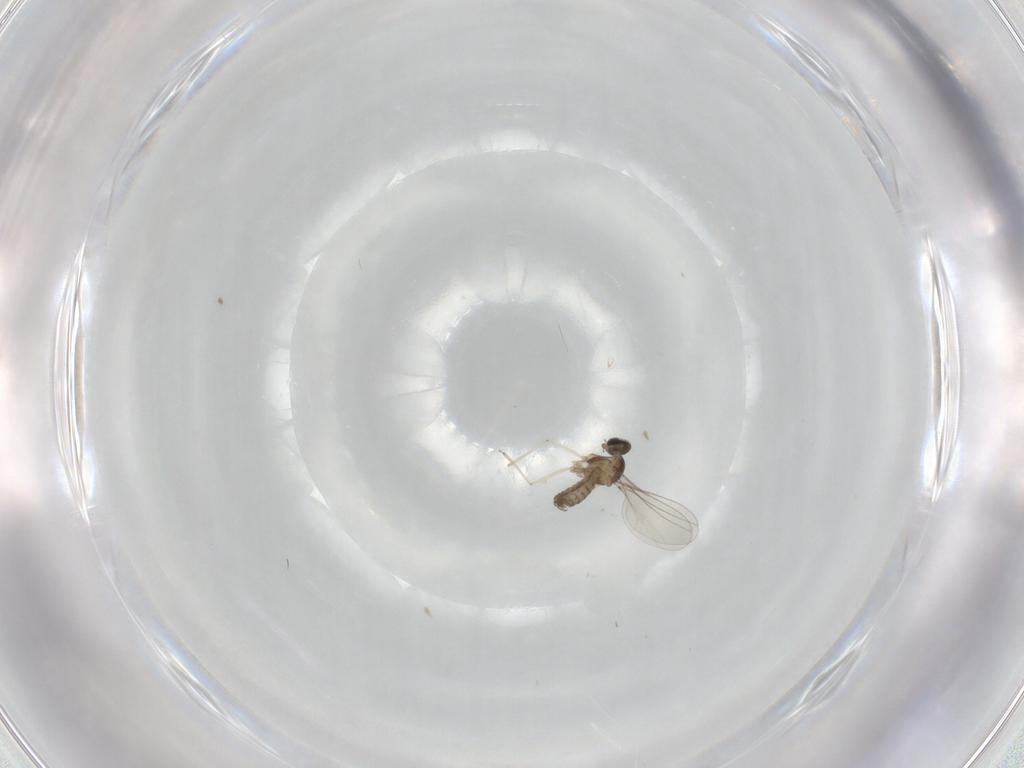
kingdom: Animalia
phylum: Arthropoda
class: Insecta
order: Diptera
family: Cecidomyiidae
